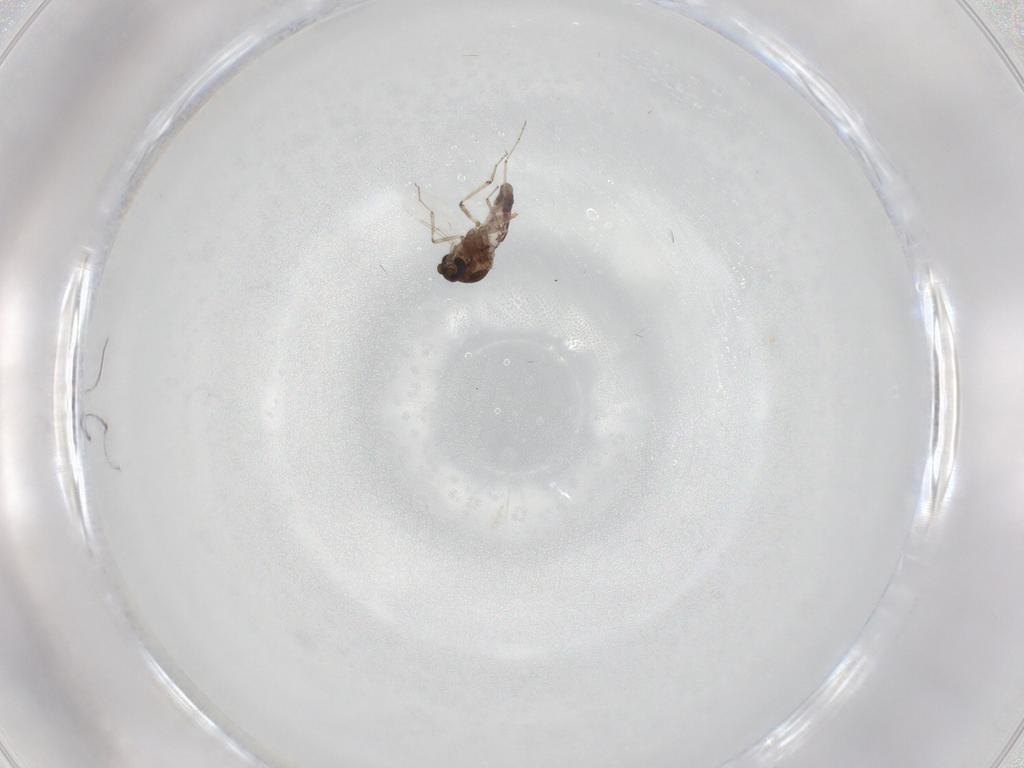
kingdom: Animalia
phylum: Arthropoda
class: Insecta
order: Diptera
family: Ceratopogonidae
